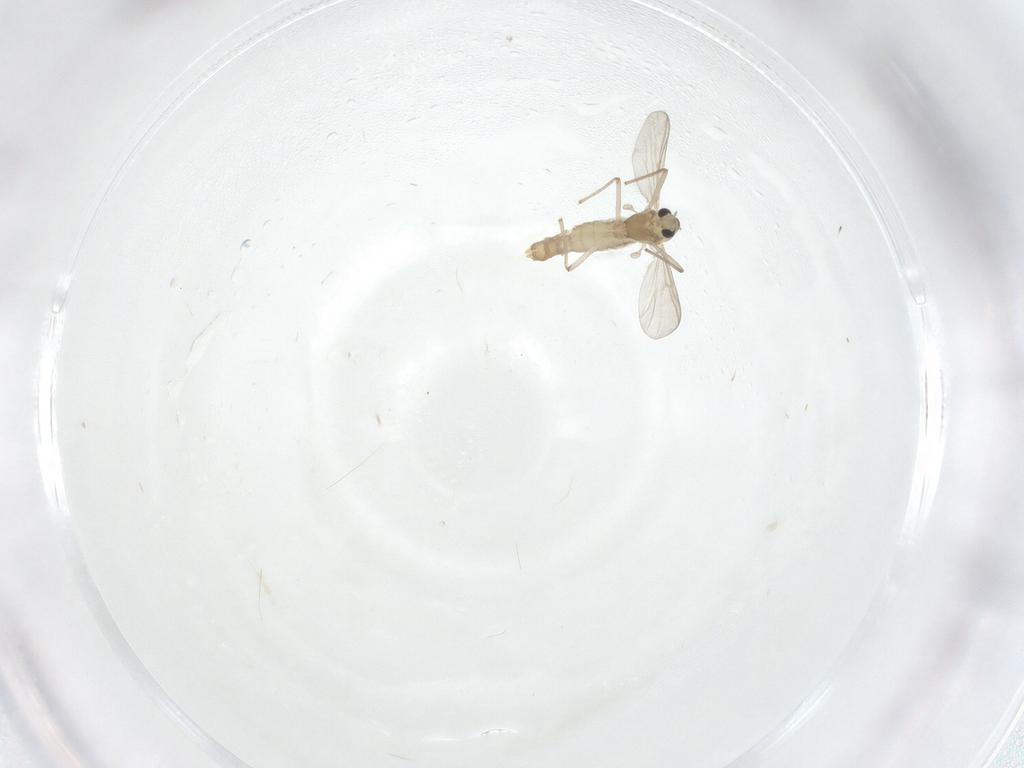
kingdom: Animalia
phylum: Arthropoda
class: Insecta
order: Diptera
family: Chironomidae
